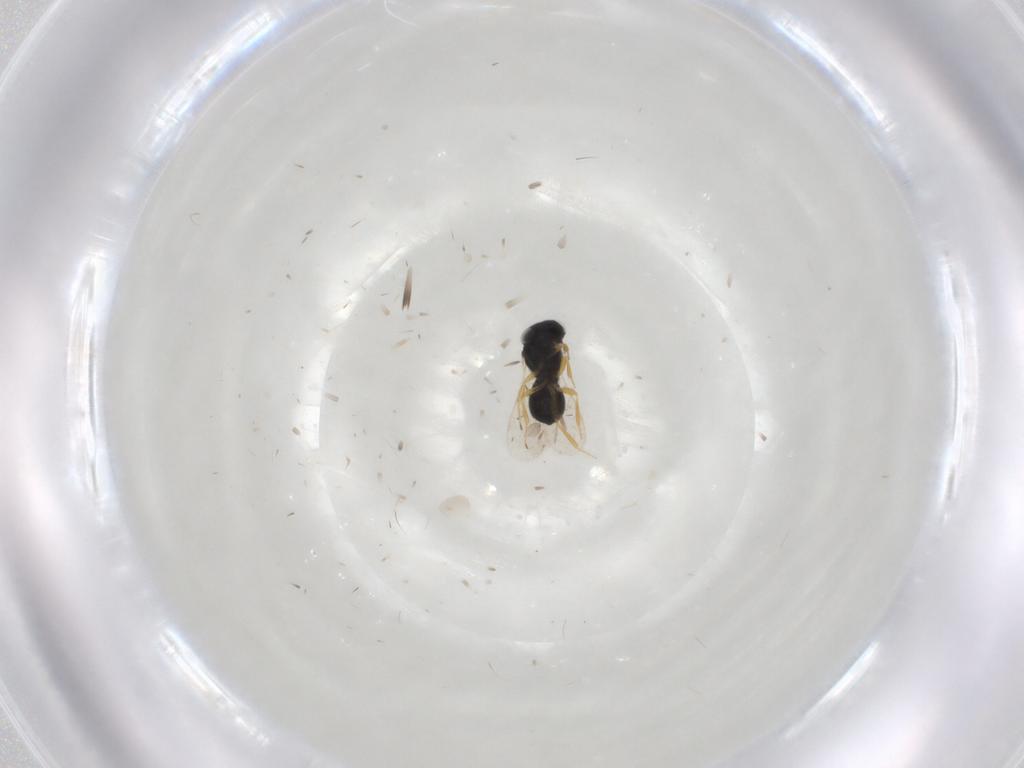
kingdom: Animalia
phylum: Arthropoda
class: Insecta
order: Hymenoptera
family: Scelionidae
